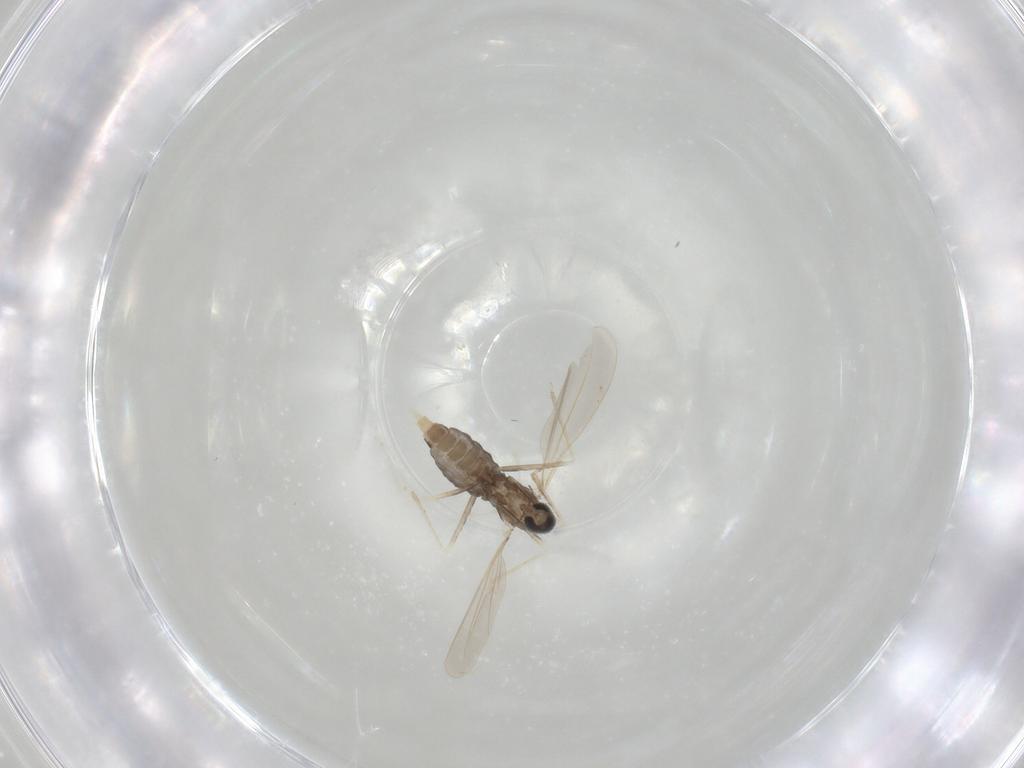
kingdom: Animalia
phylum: Arthropoda
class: Insecta
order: Diptera
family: Cecidomyiidae
